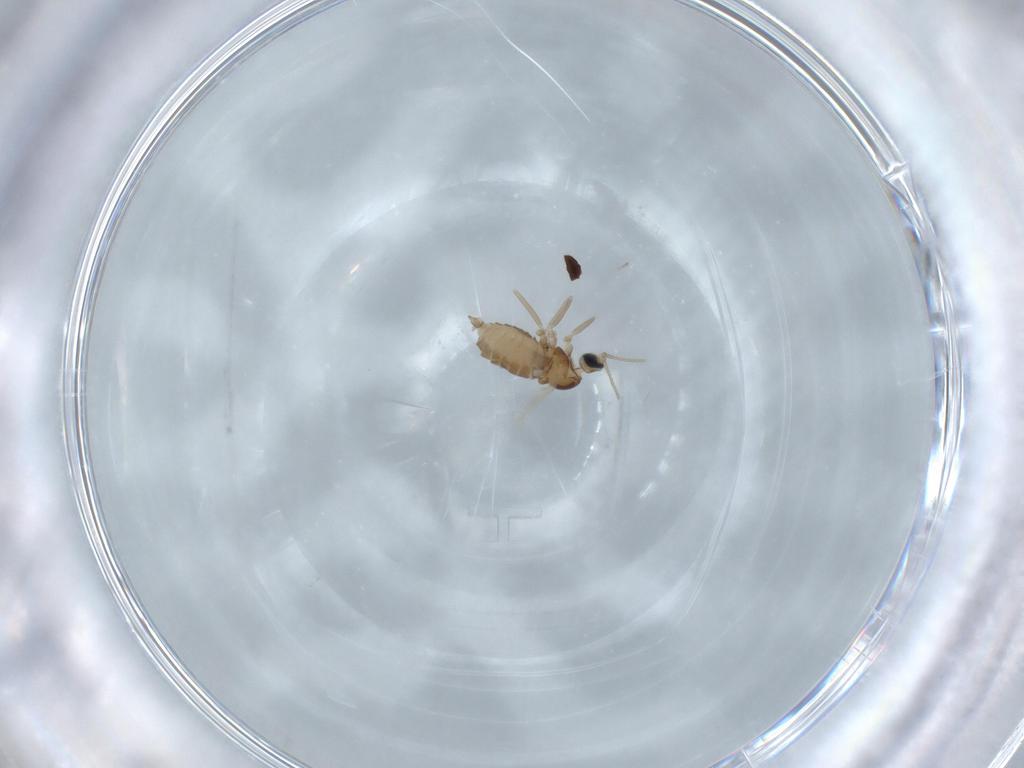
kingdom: Animalia
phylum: Arthropoda
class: Insecta
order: Diptera
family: Cecidomyiidae
